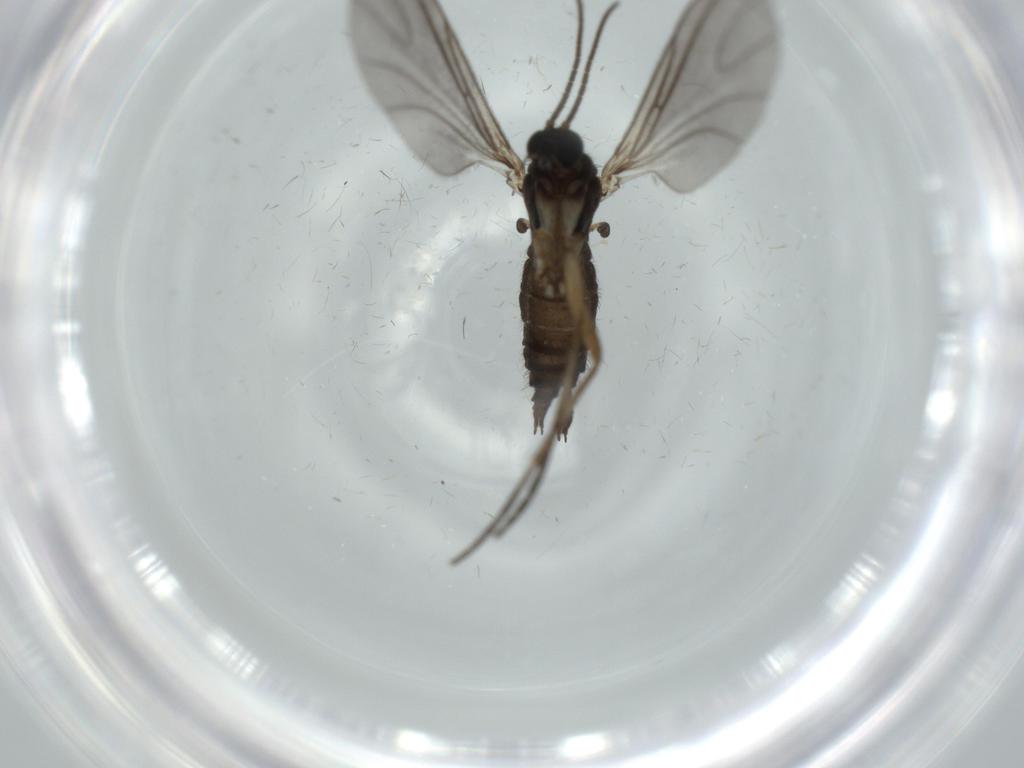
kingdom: Animalia
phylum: Arthropoda
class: Insecta
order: Diptera
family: Sciaridae
